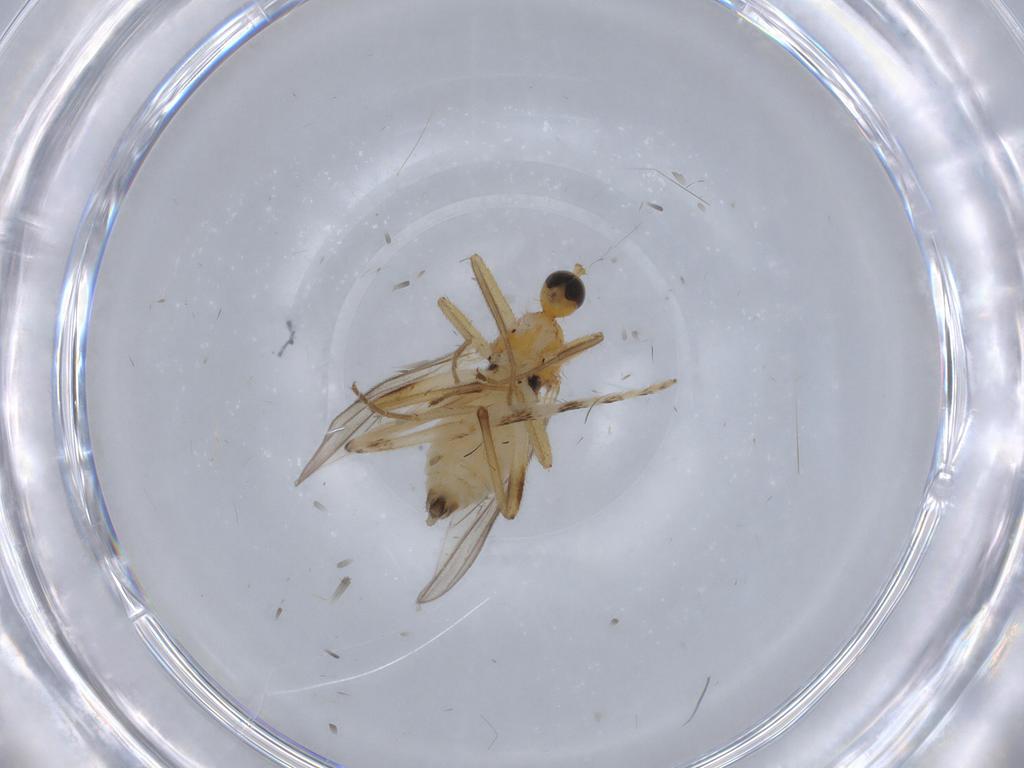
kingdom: Animalia
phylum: Arthropoda
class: Insecta
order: Diptera
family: Hybotidae
